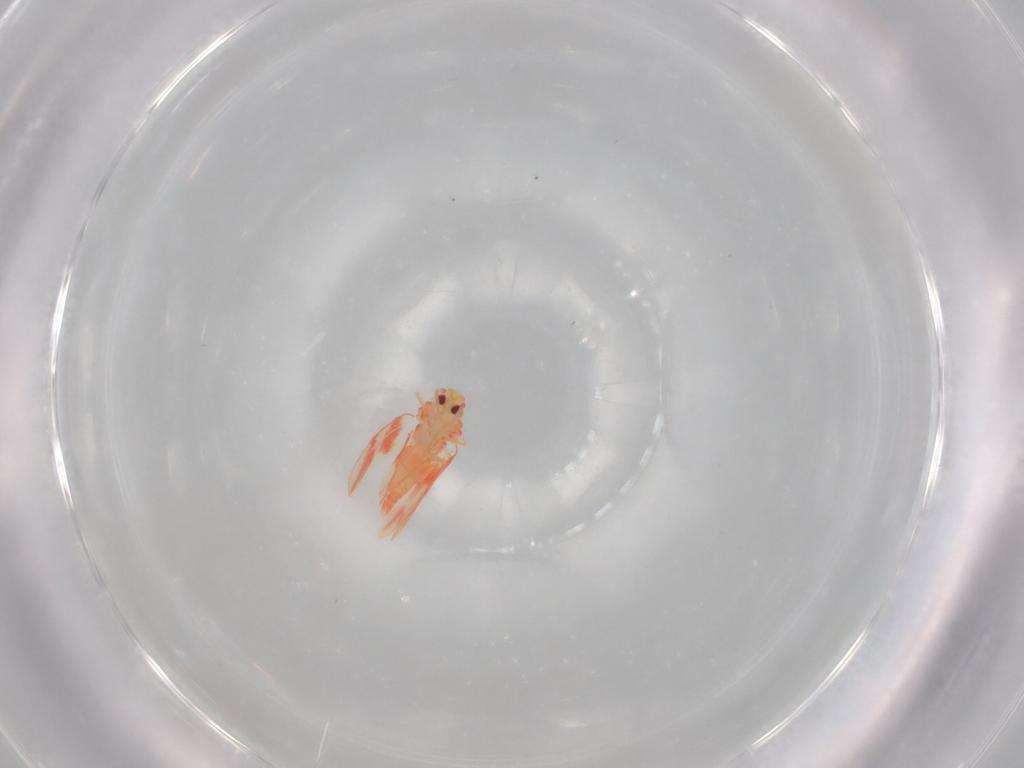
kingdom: Animalia
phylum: Arthropoda
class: Insecta
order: Hemiptera
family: Aleyrodidae
